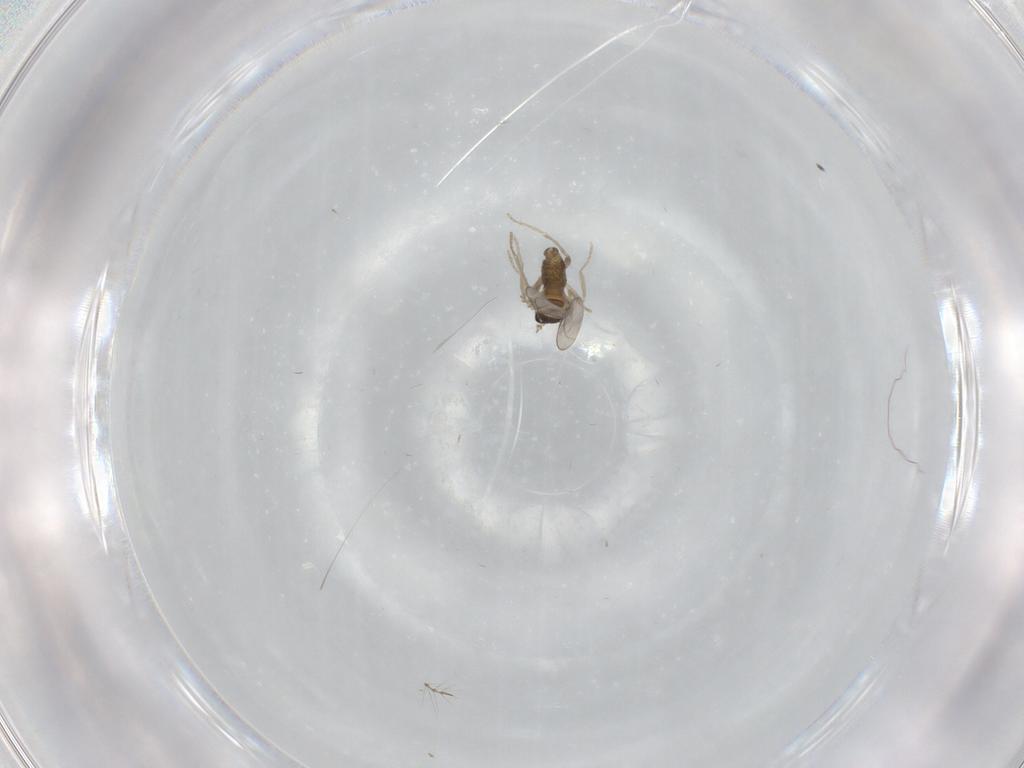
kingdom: Animalia
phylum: Arthropoda
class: Insecta
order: Diptera
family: Cecidomyiidae
